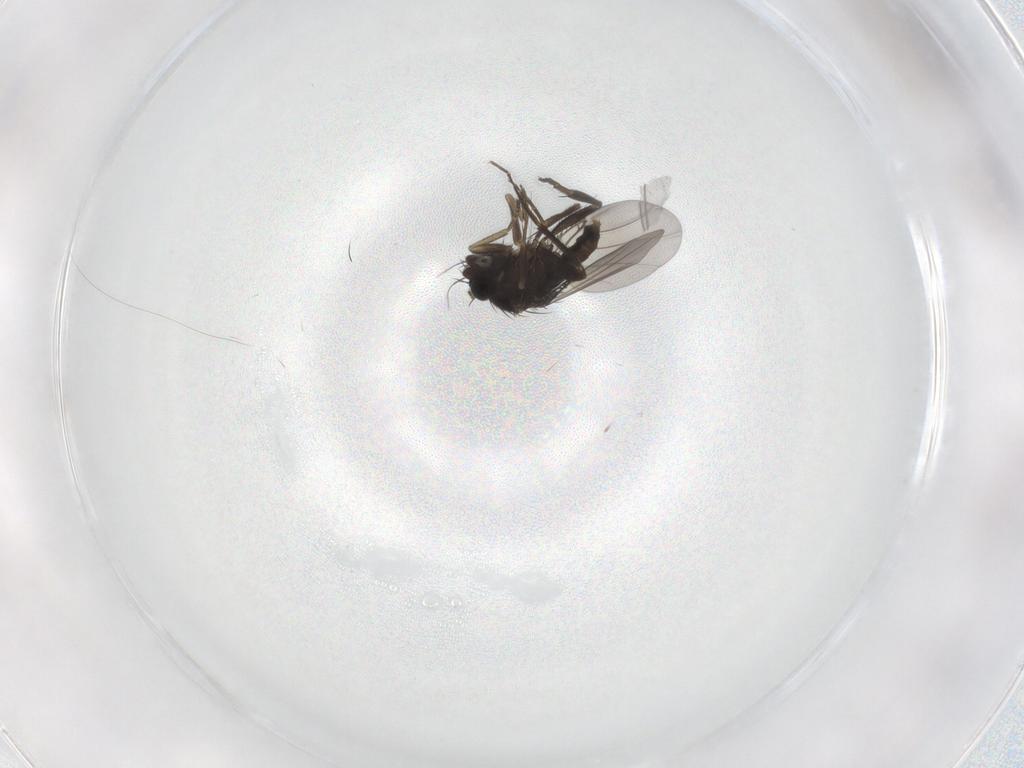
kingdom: Animalia
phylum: Arthropoda
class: Insecta
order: Diptera
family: Phoridae
